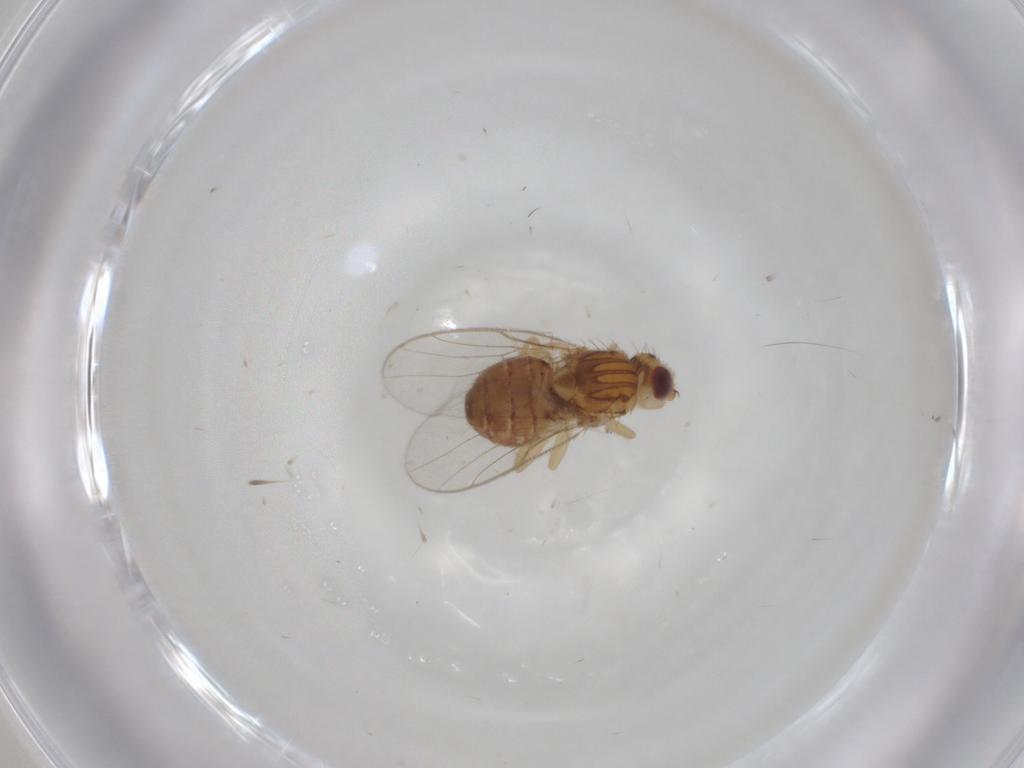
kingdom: Animalia
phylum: Arthropoda
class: Insecta
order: Diptera
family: Chloropidae
